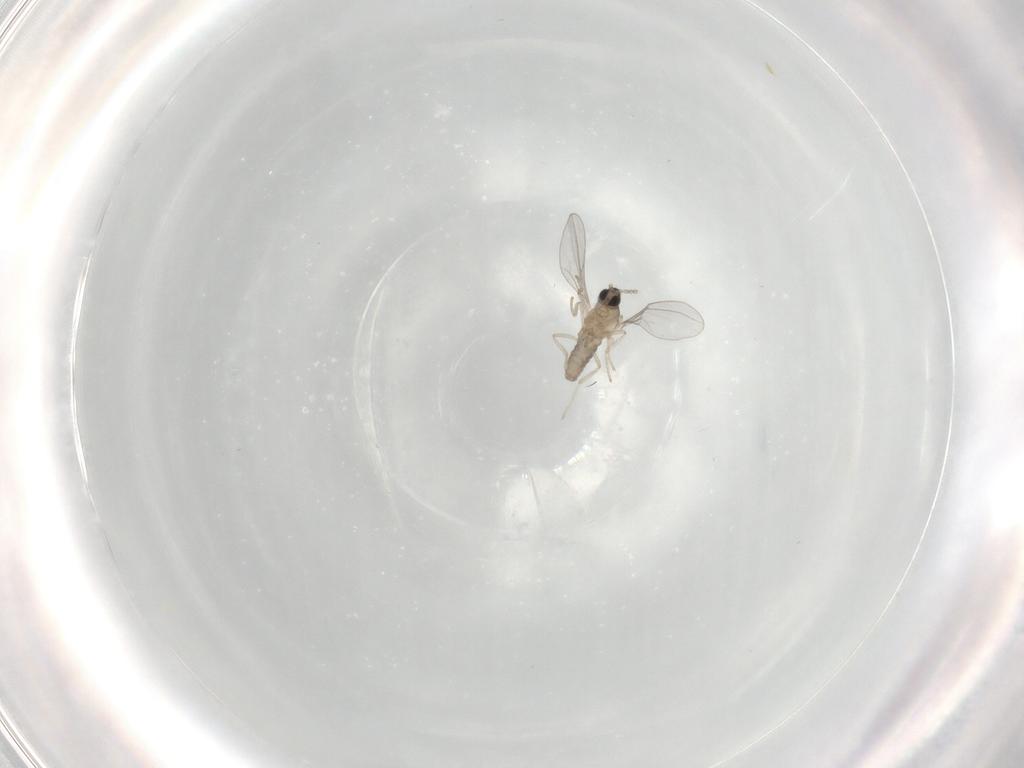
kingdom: Animalia
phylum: Arthropoda
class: Insecta
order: Diptera
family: Cecidomyiidae
